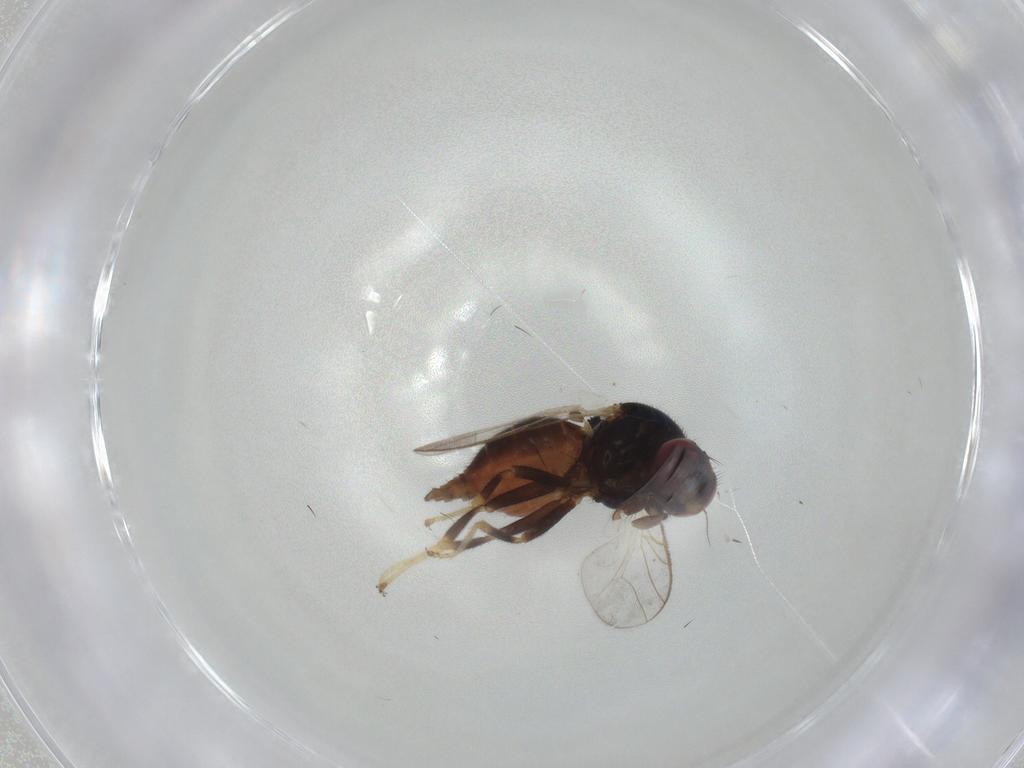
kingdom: Animalia
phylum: Arthropoda
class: Insecta
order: Diptera
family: Chloropidae
